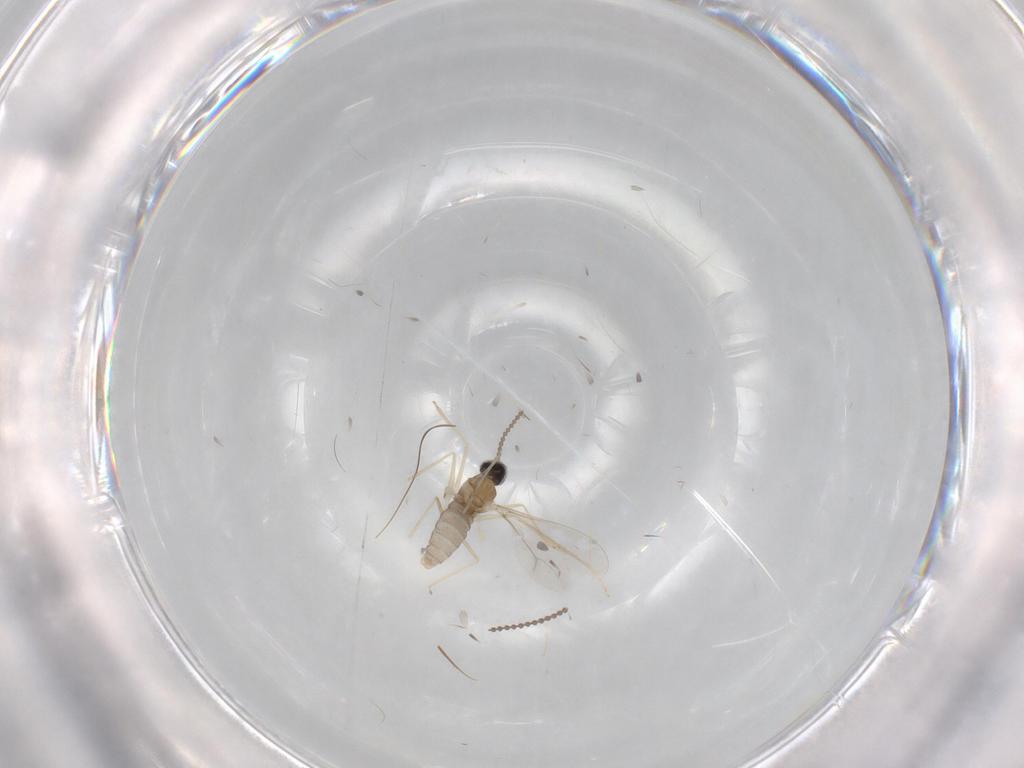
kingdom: Animalia
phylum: Arthropoda
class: Insecta
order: Diptera
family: Cecidomyiidae
